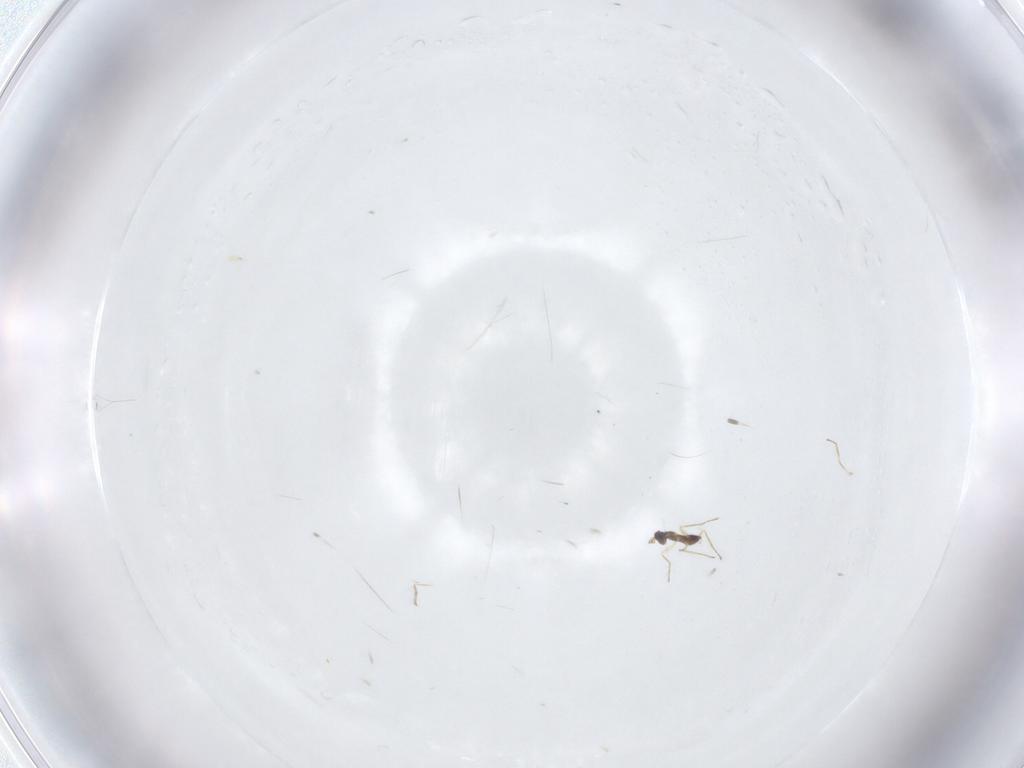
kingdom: Animalia
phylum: Arthropoda
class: Insecta
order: Hymenoptera
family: Mymaridae
